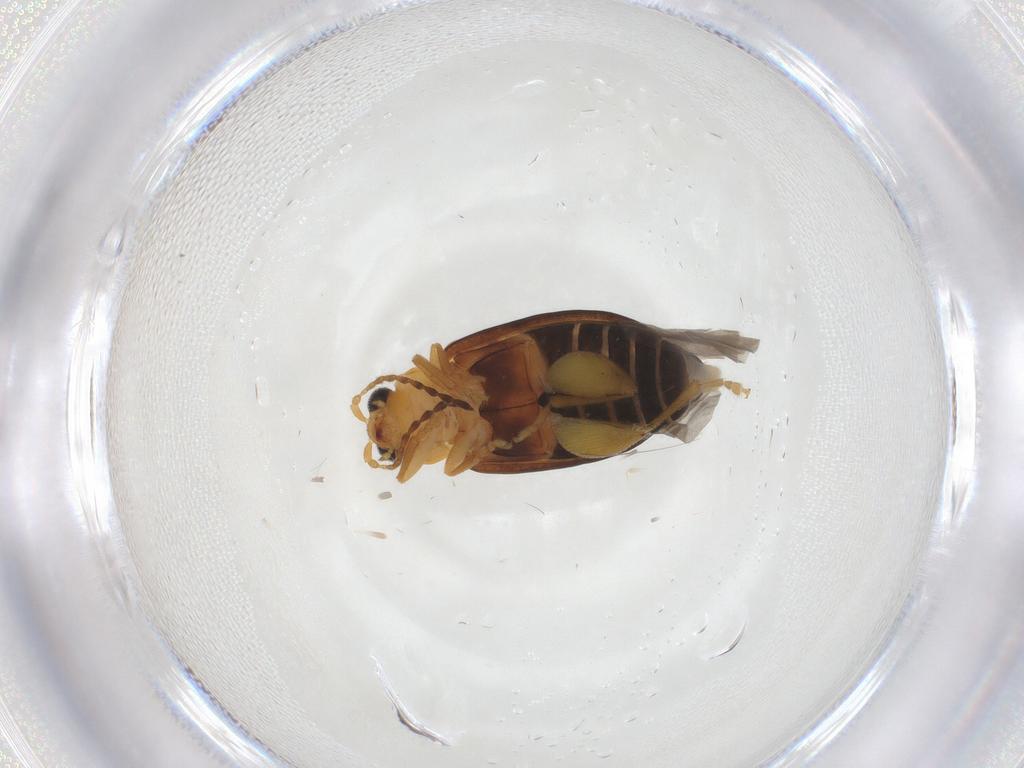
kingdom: Animalia
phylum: Arthropoda
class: Insecta
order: Coleoptera
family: Chrysomelidae
